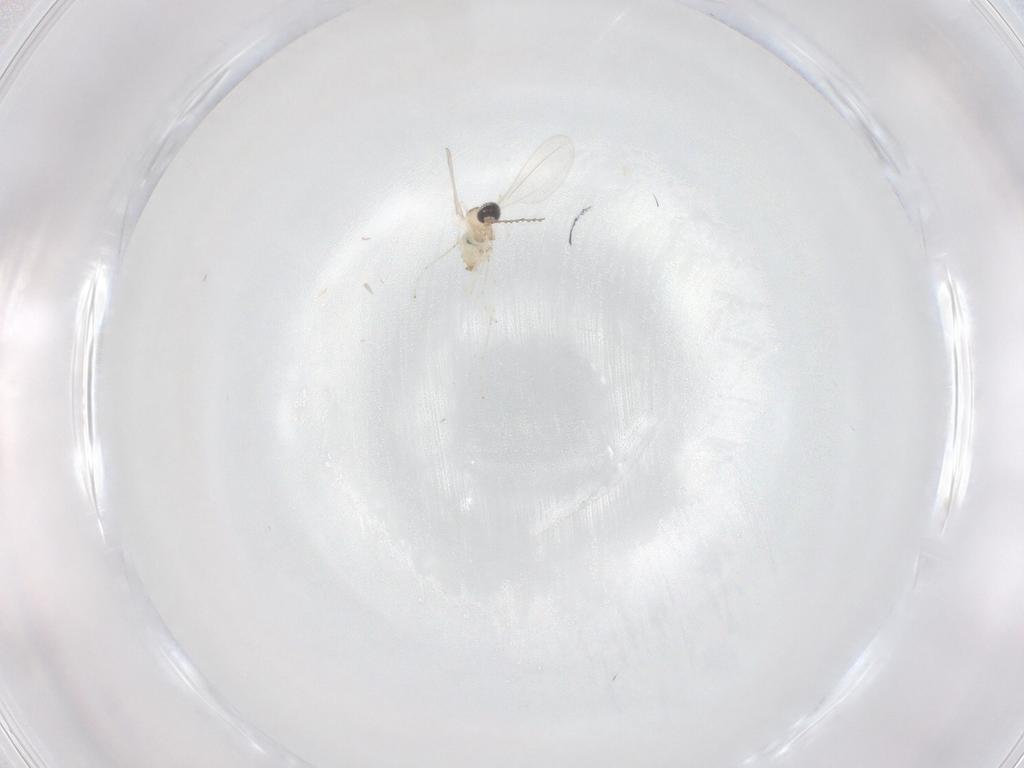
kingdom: Animalia
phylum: Arthropoda
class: Insecta
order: Diptera
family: Cecidomyiidae
